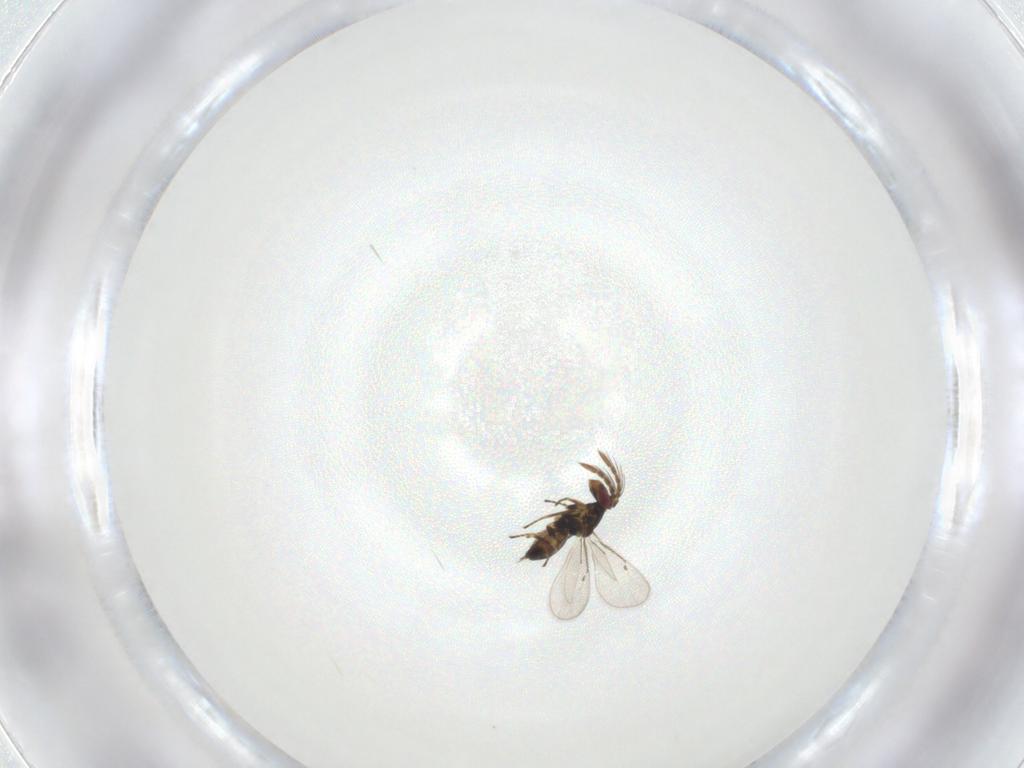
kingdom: Animalia
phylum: Arthropoda
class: Insecta
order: Hymenoptera
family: Eulophidae
